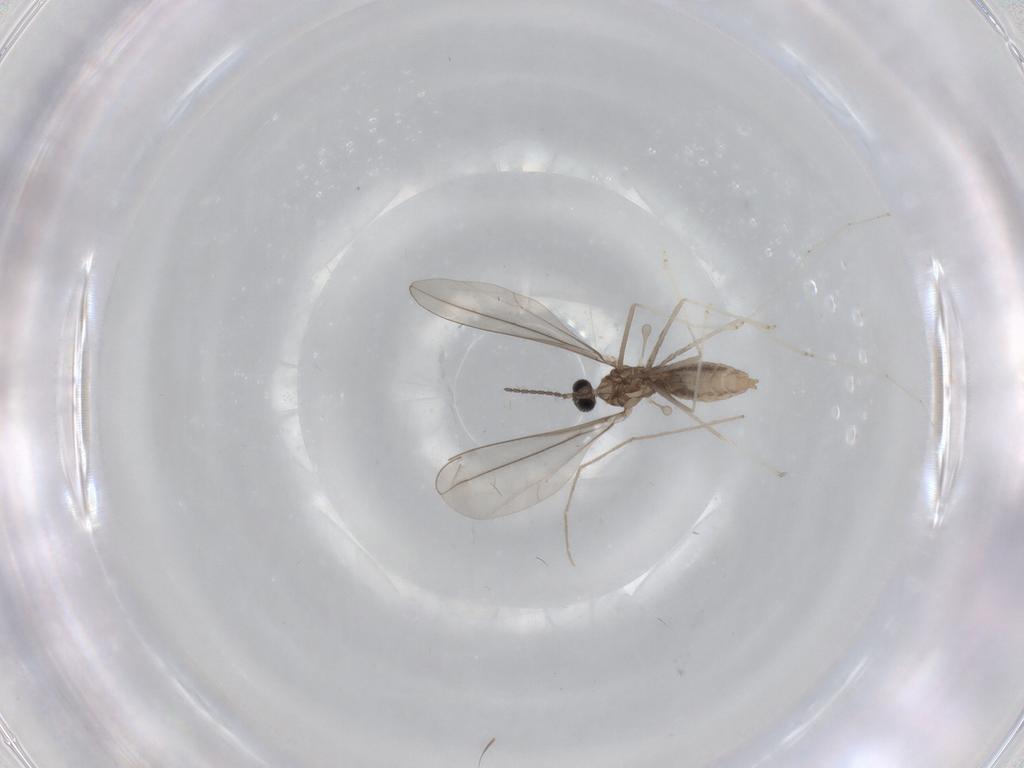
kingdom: Animalia
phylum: Arthropoda
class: Insecta
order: Diptera
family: Cecidomyiidae
